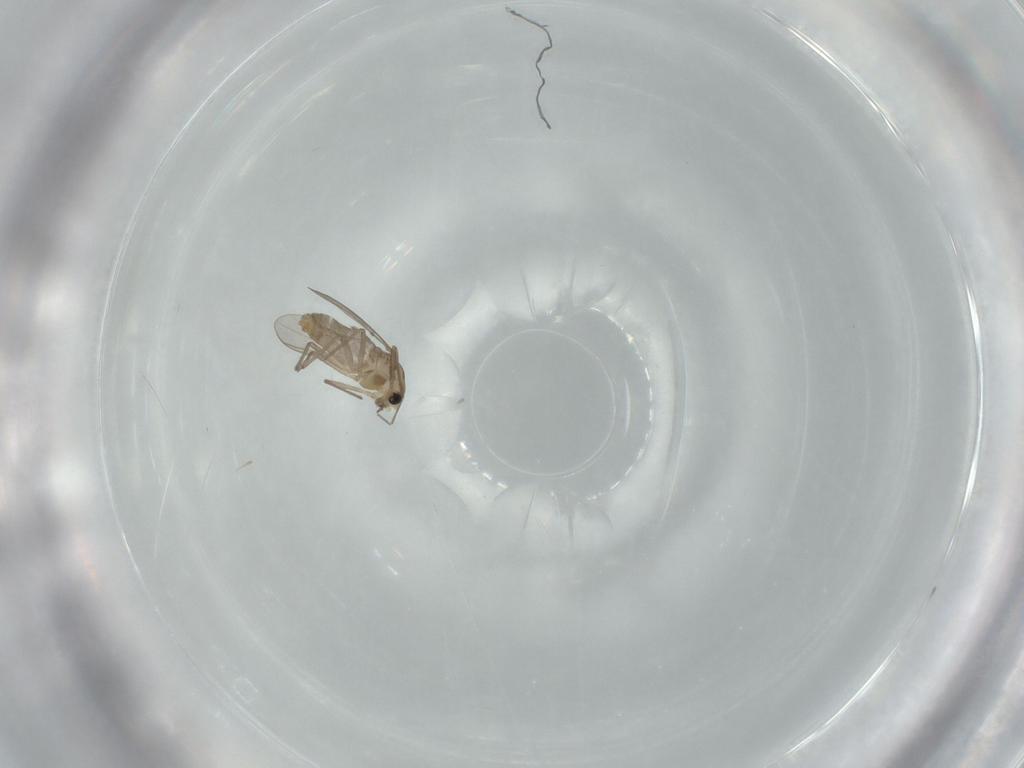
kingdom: Animalia
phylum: Arthropoda
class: Insecta
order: Diptera
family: Chironomidae
